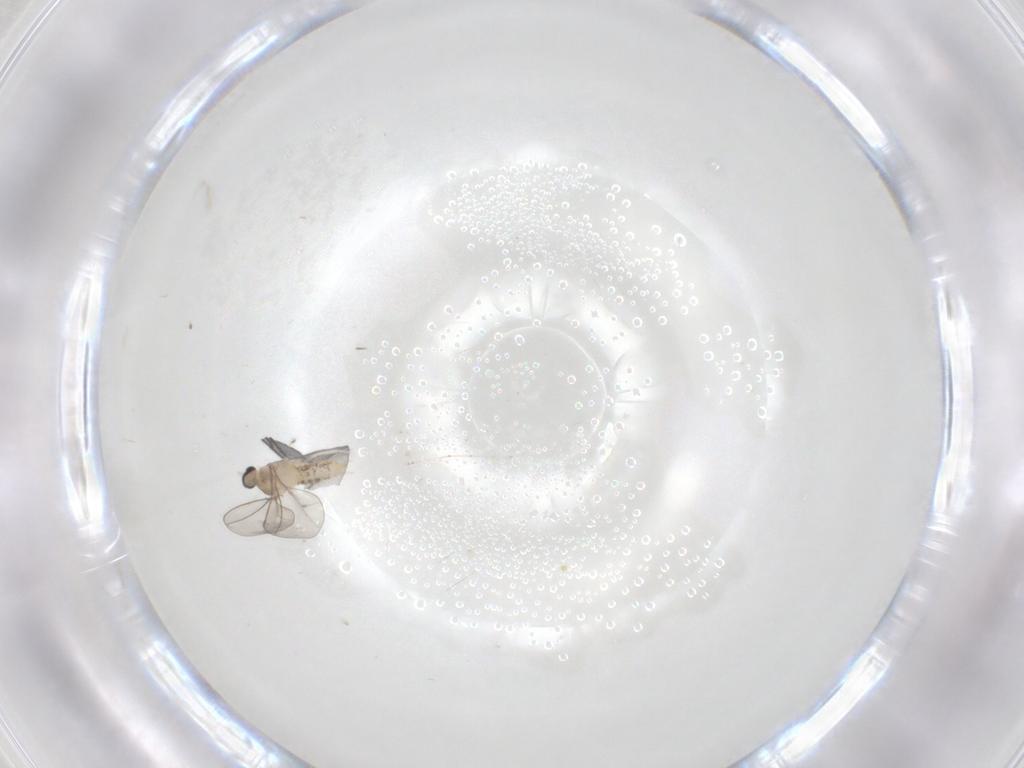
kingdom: Animalia
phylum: Arthropoda
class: Insecta
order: Diptera
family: Cecidomyiidae
